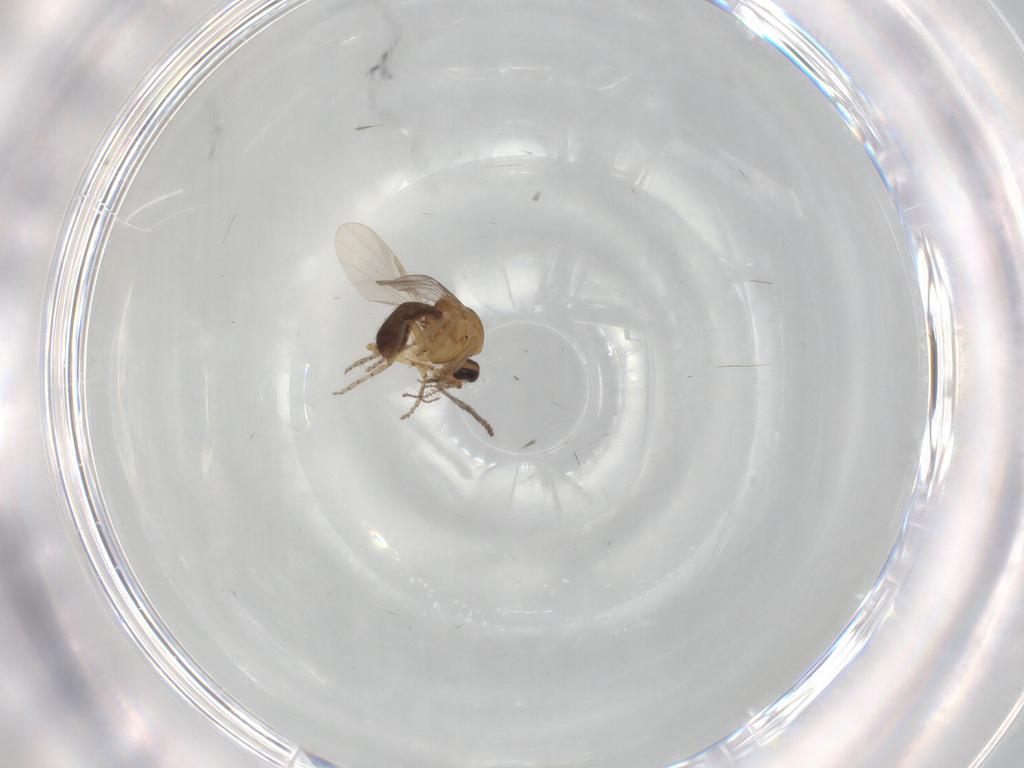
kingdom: Animalia
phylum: Arthropoda
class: Insecta
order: Diptera
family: Ceratopogonidae
